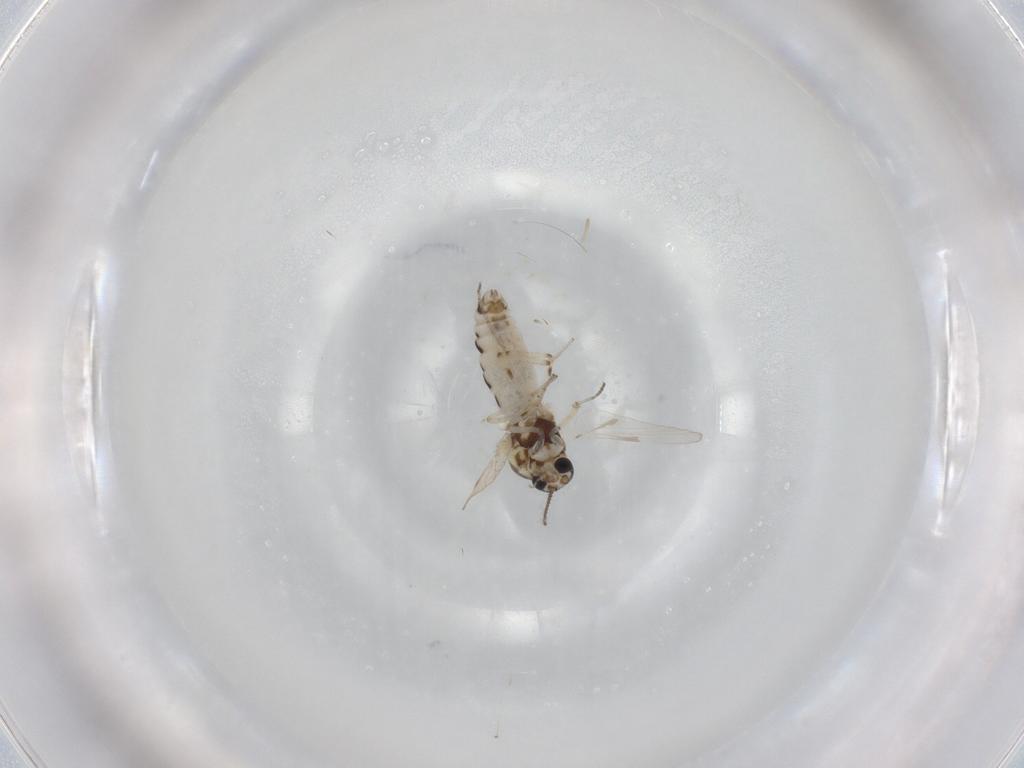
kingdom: Animalia
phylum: Arthropoda
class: Insecta
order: Diptera
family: Ceratopogonidae
